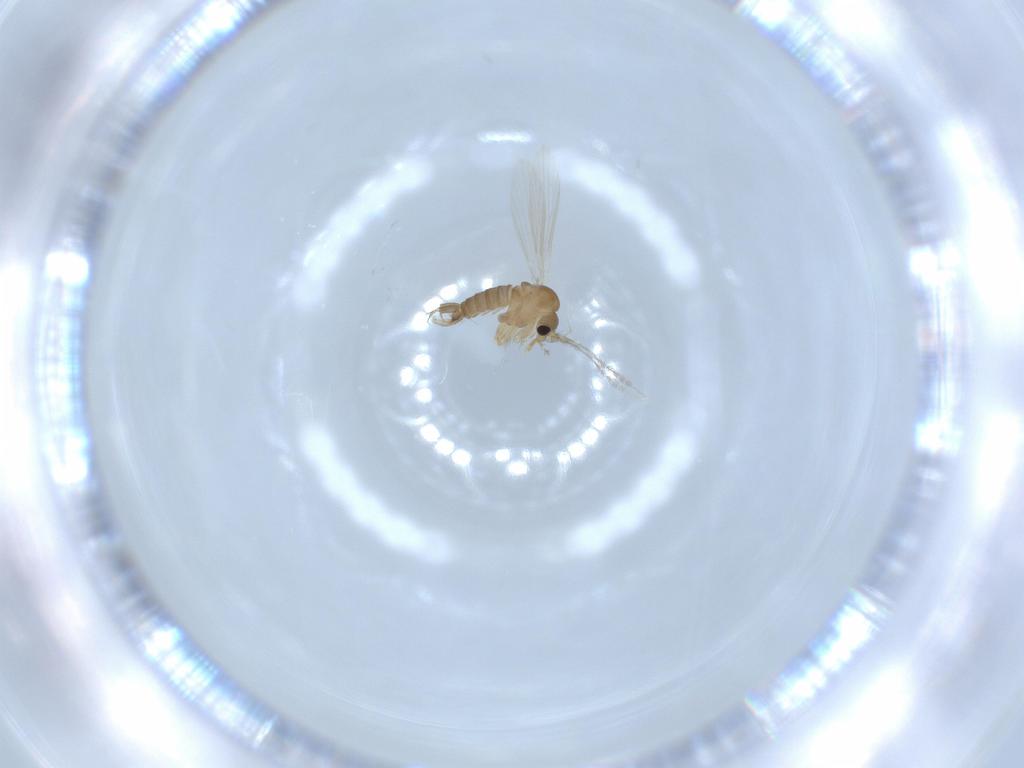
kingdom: Animalia
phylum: Arthropoda
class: Insecta
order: Diptera
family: Psychodidae
